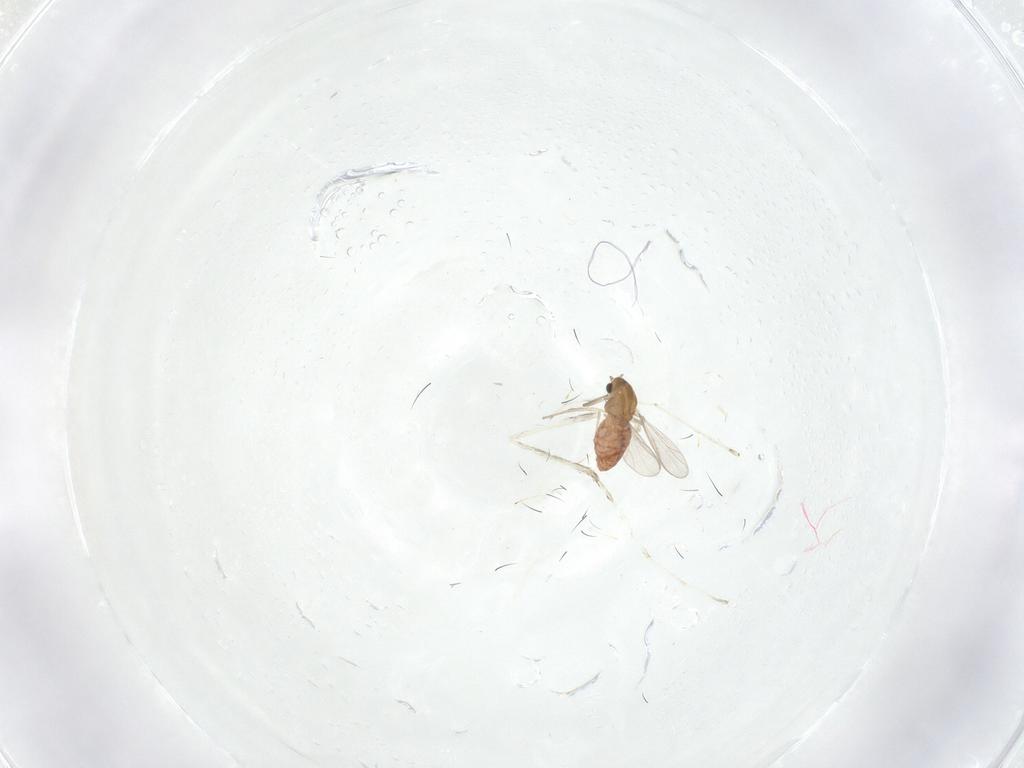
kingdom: Animalia
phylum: Arthropoda
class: Insecta
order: Diptera
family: Chironomidae
